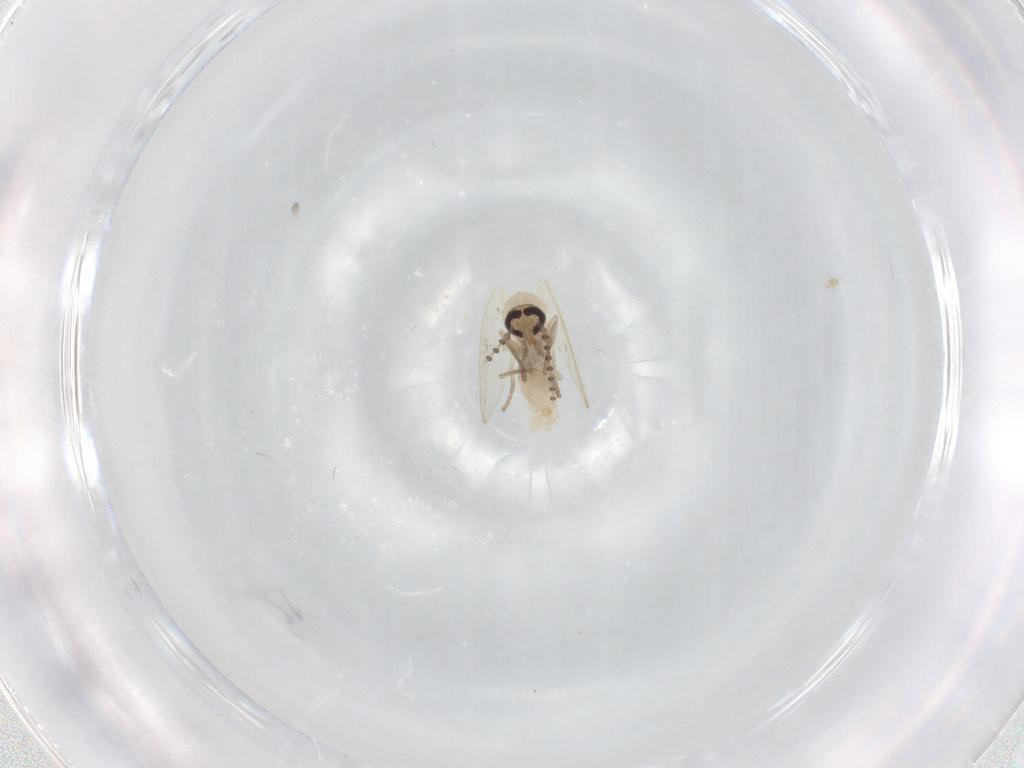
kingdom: Animalia
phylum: Arthropoda
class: Insecta
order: Diptera
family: Psychodidae
